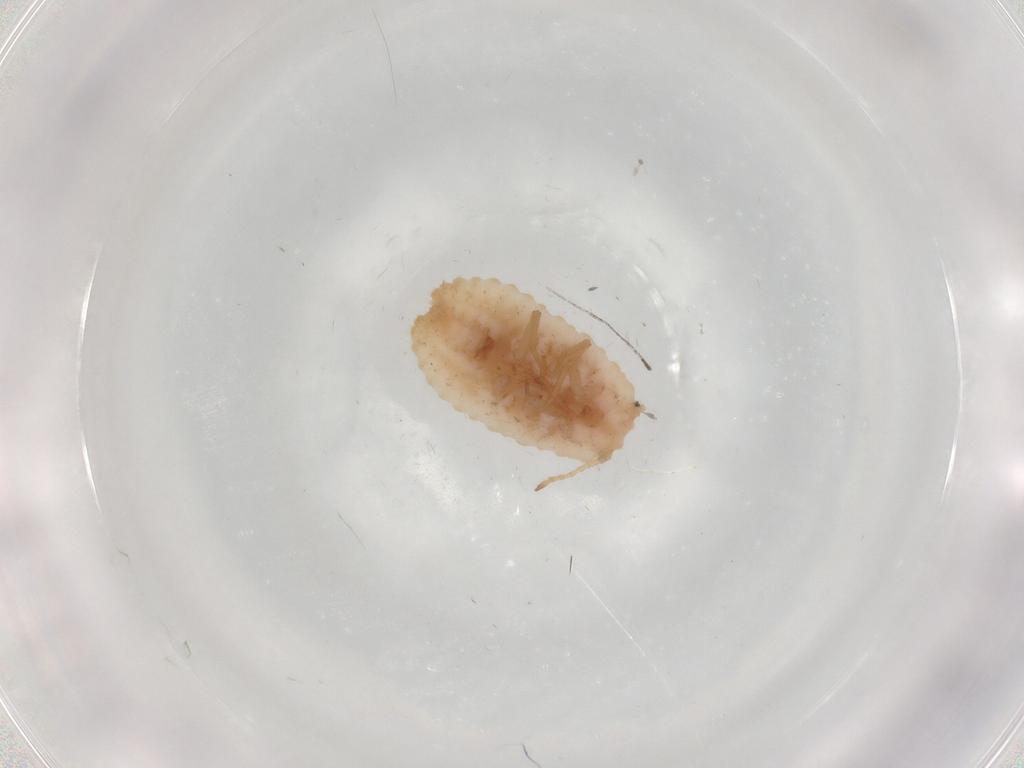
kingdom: Animalia
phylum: Arthropoda
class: Insecta
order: Hemiptera
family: Coccoidea_incertae_sedis
